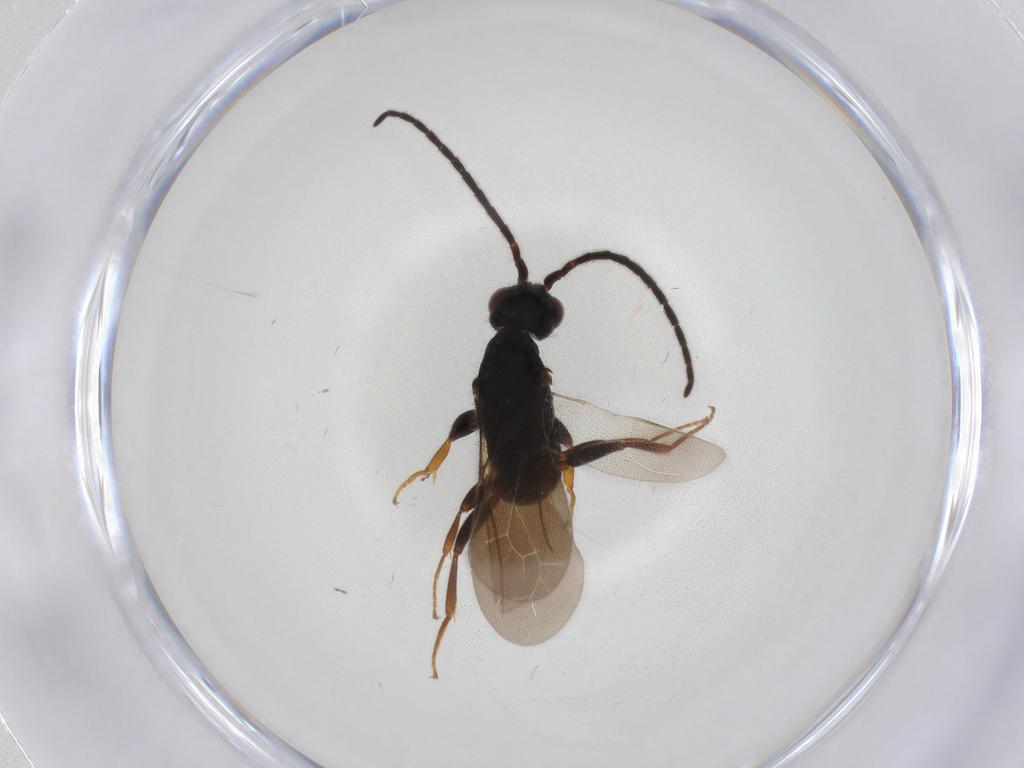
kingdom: Animalia
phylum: Arthropoda
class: Insecta
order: Hymenoptera
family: Bethylidae
